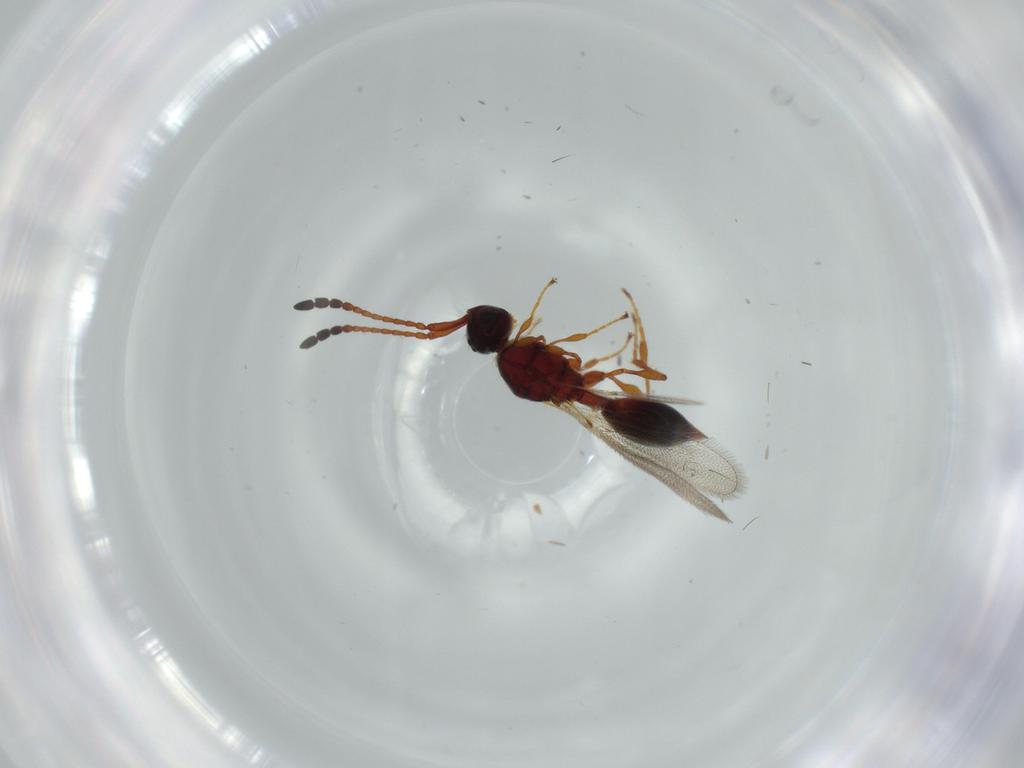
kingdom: Animalia
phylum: Arthropoda
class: Insecta
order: Hymenoptera
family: Diapriidae
